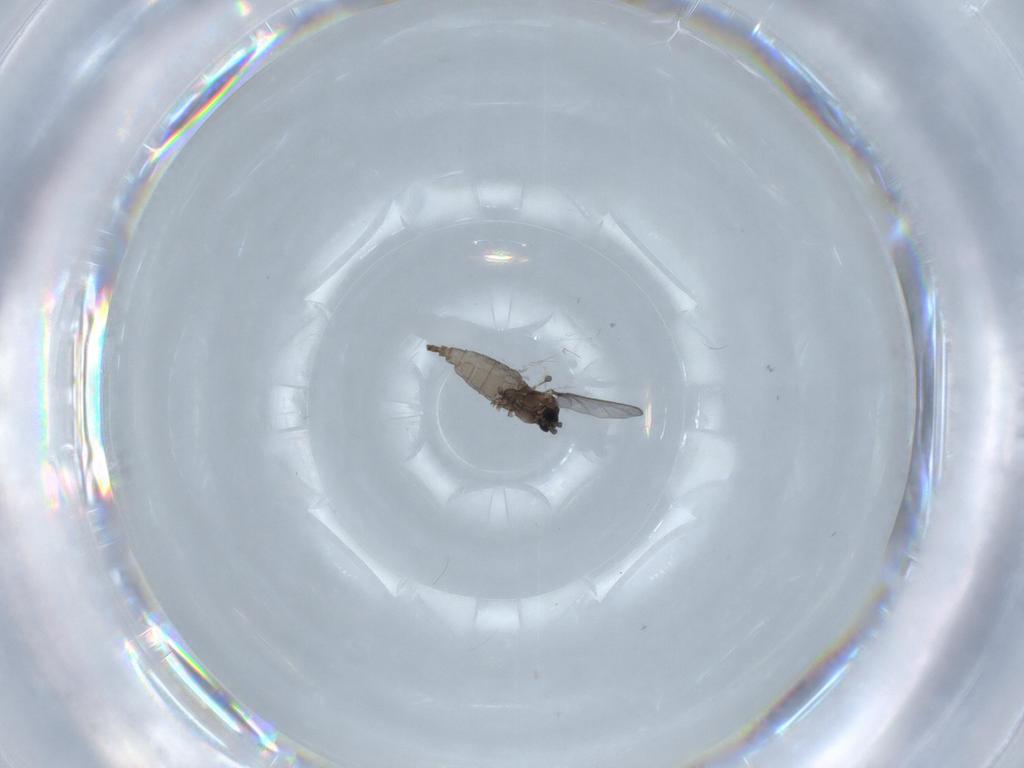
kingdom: Animalia
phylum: Arthropoda
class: Insecta
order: Diptera
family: Sciaridae
